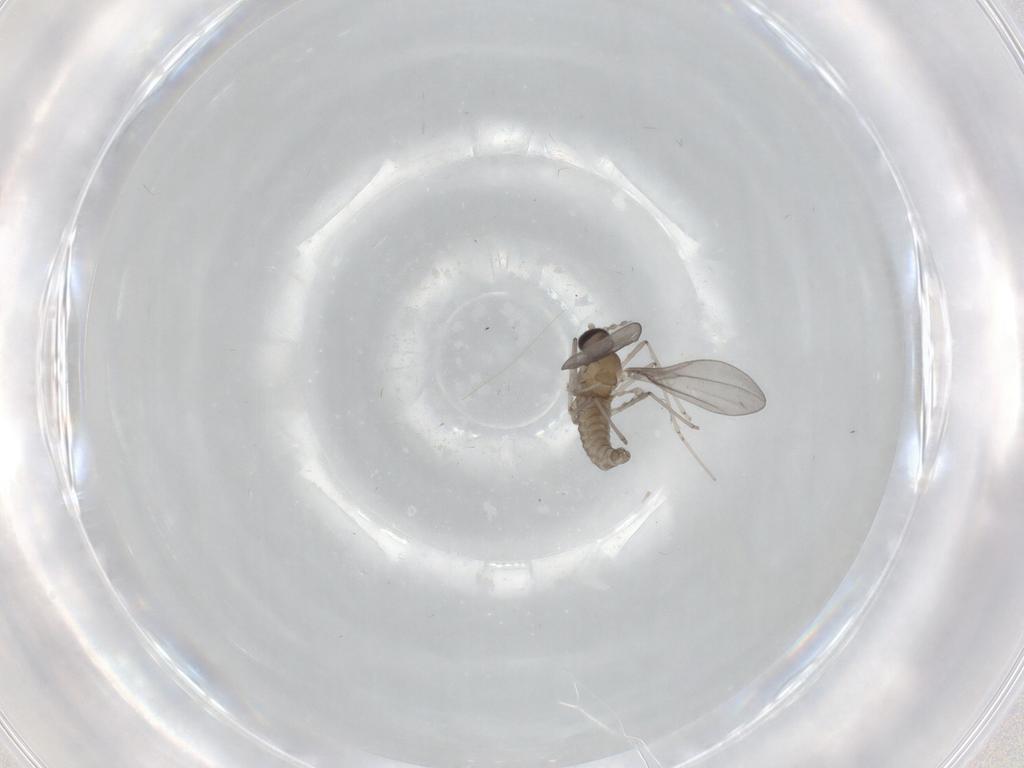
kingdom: Animalia
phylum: Arthropoda
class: Insecta
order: Diptera
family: Cecidomyiidae
